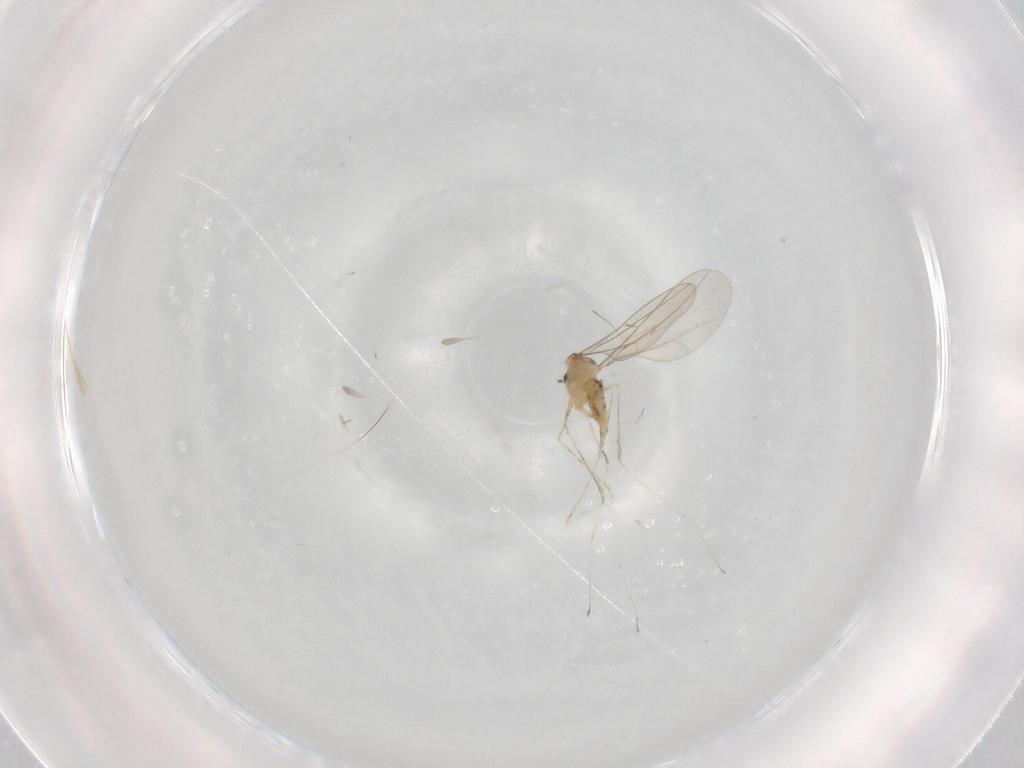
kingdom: Animalia
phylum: Arthropoda
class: Insecta
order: Diptera
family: Cecidomyiidae
